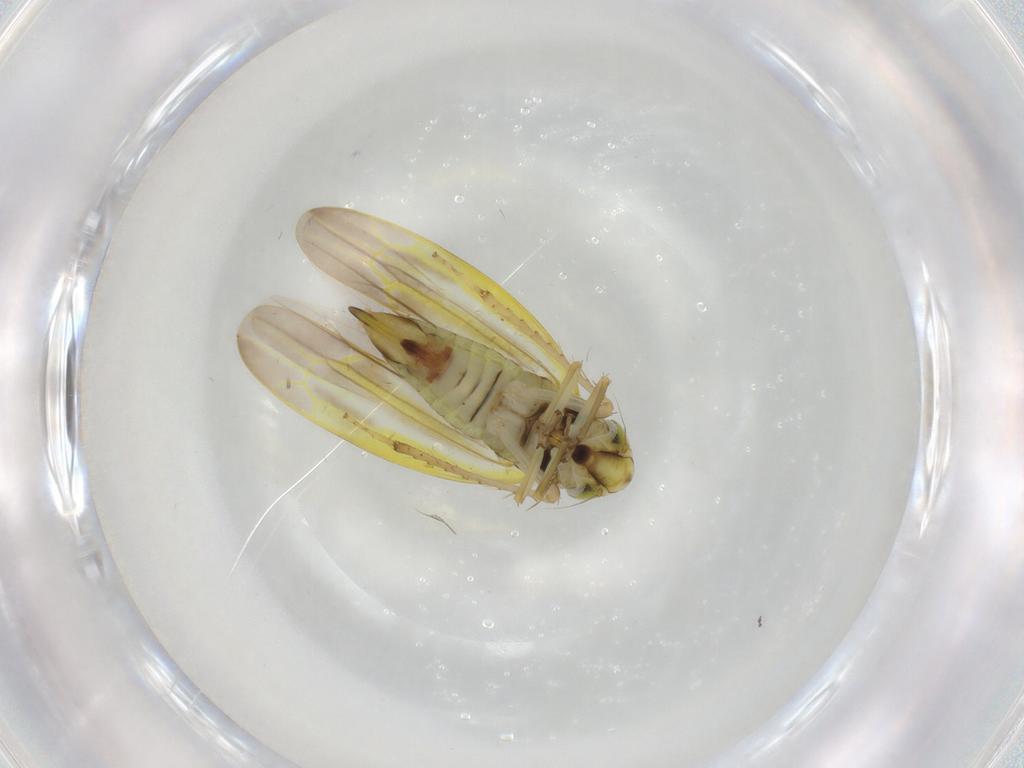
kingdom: Animalia
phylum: Arthropoda
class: Insecta
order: Hemiptera
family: Cicadellidae
